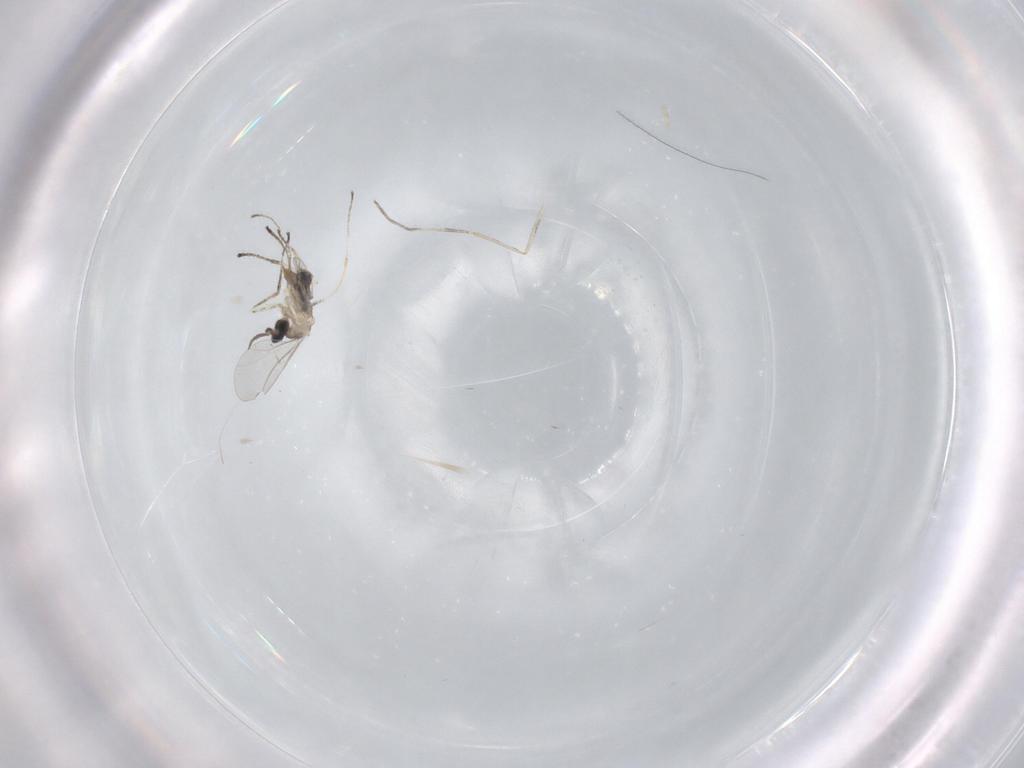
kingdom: Animalia
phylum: Arthropoda
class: Insecta
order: Diptera
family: Cecidomyiidae
